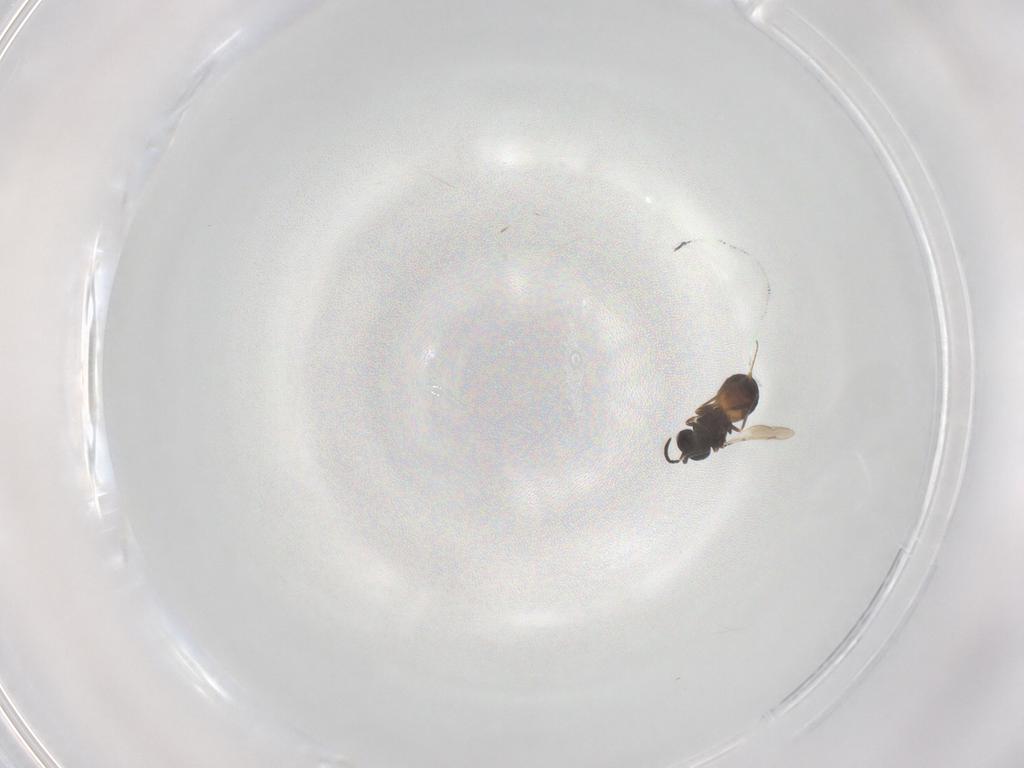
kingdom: Animalia
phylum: Arthropoda
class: Insecta
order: Hymenoptera
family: Scelionidae
